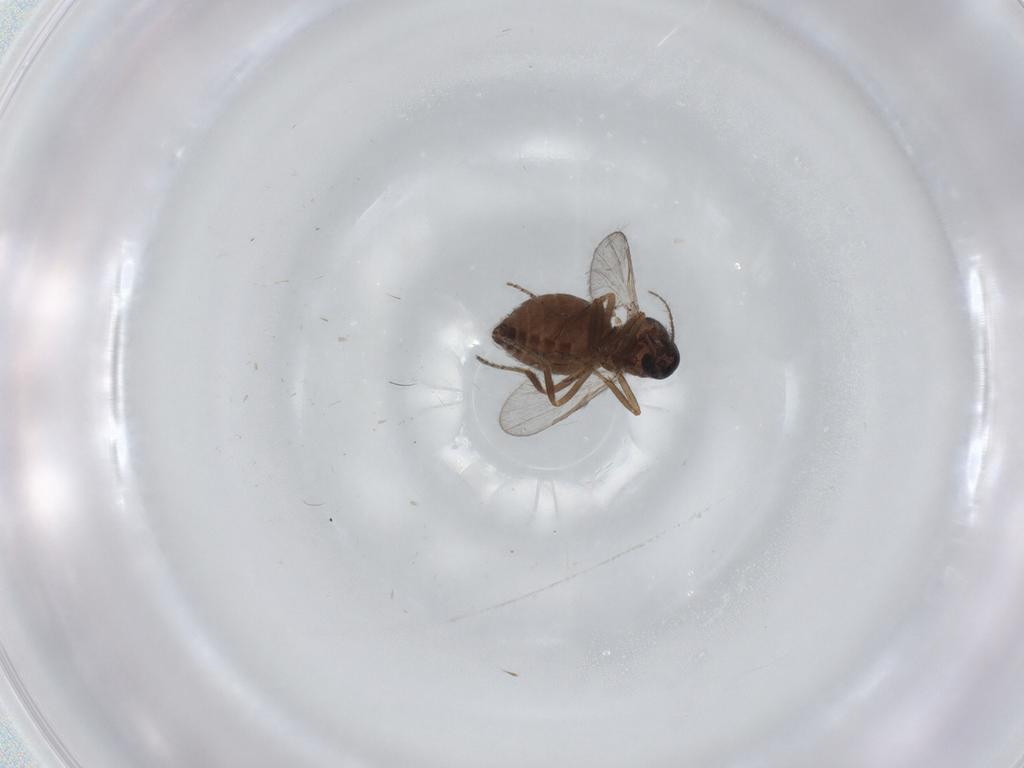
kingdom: Animalia
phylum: Arthropoda
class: Insecta
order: Diptera
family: Ceratopogonidae
